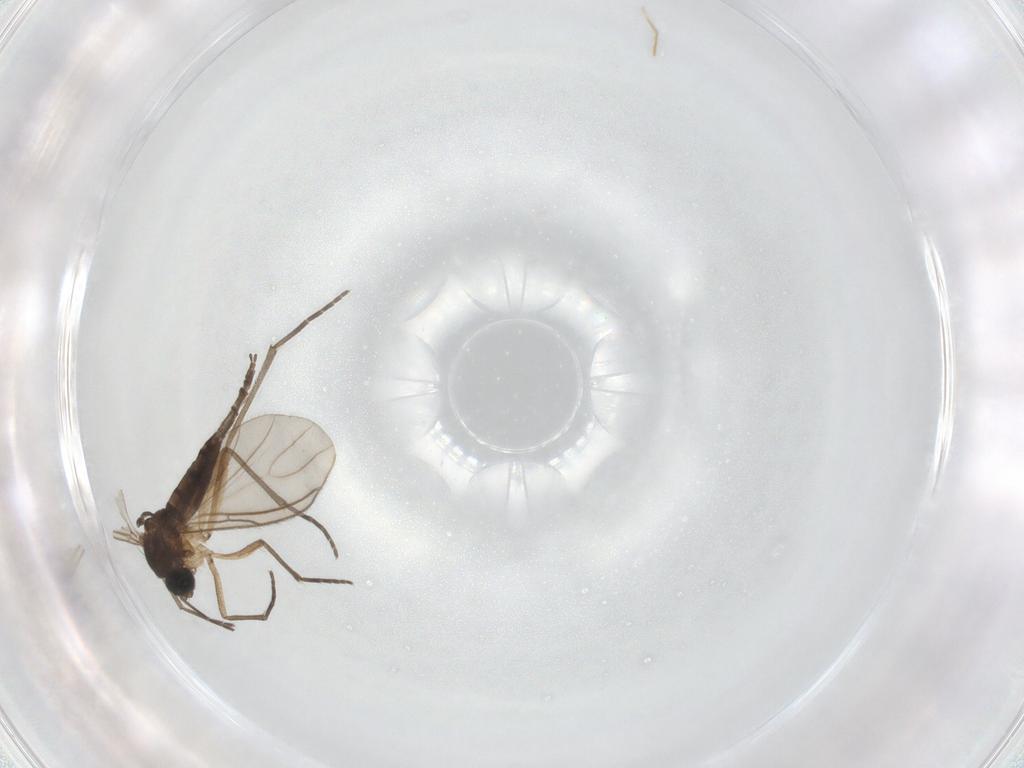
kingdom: Animalia
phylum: Arthropoda
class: Insecta
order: Diptera
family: Sciaridae
